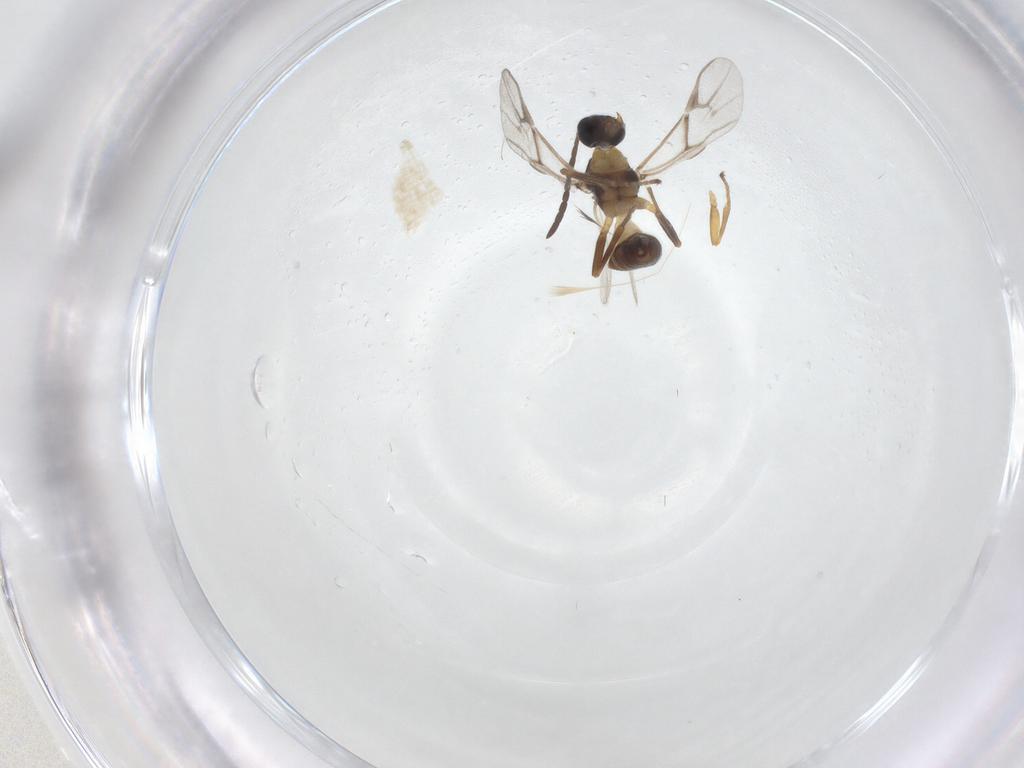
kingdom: Animalia
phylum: Arthropoda
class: Insecta
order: Hymenoptera
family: Braconidae
